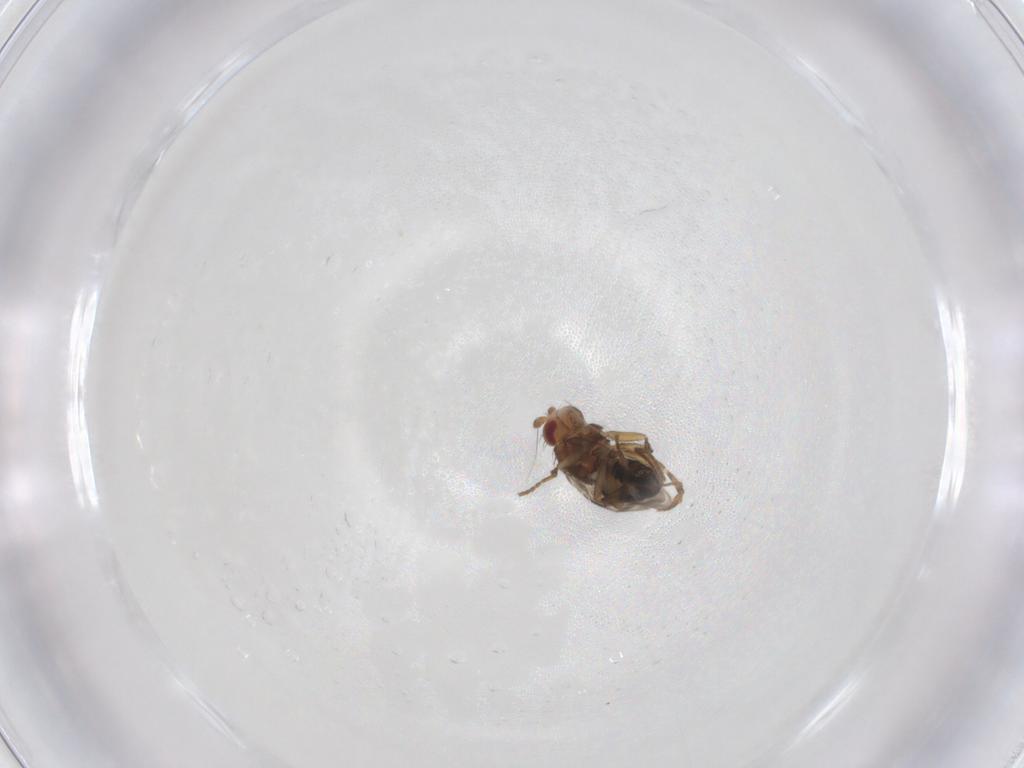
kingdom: Animalia
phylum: Arthropoda
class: Insecta
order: Diptera
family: Sphaeroceridae
